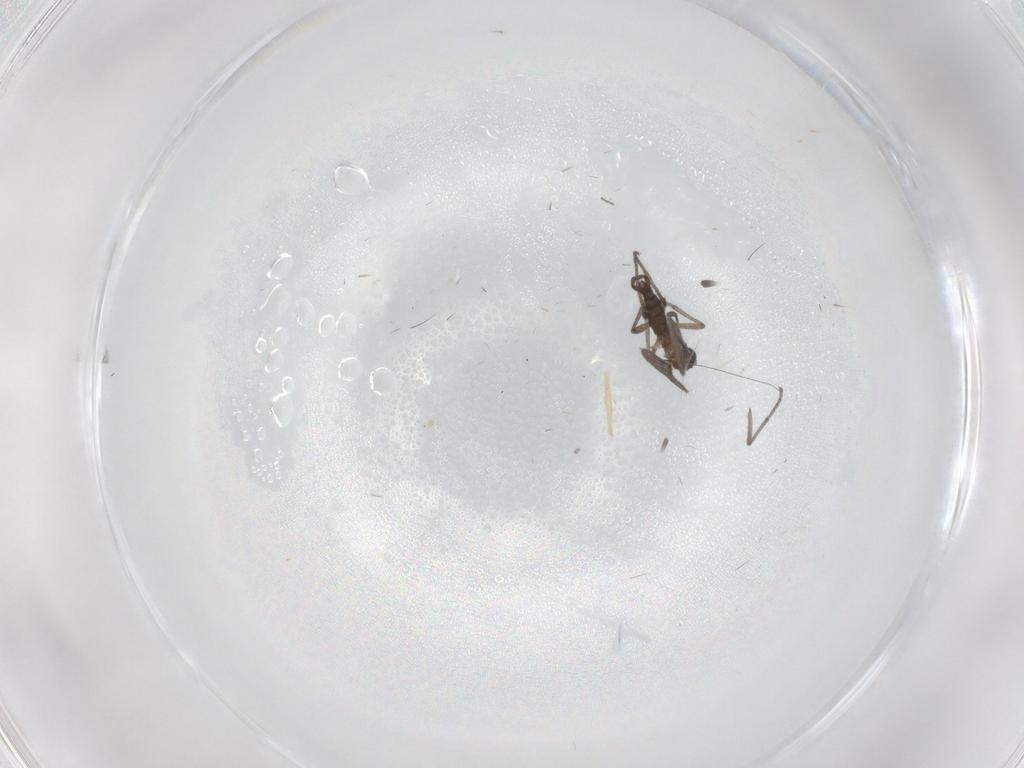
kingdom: Animalia
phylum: Arthropoda
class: Insecta
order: Diptera
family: Sciaridae
